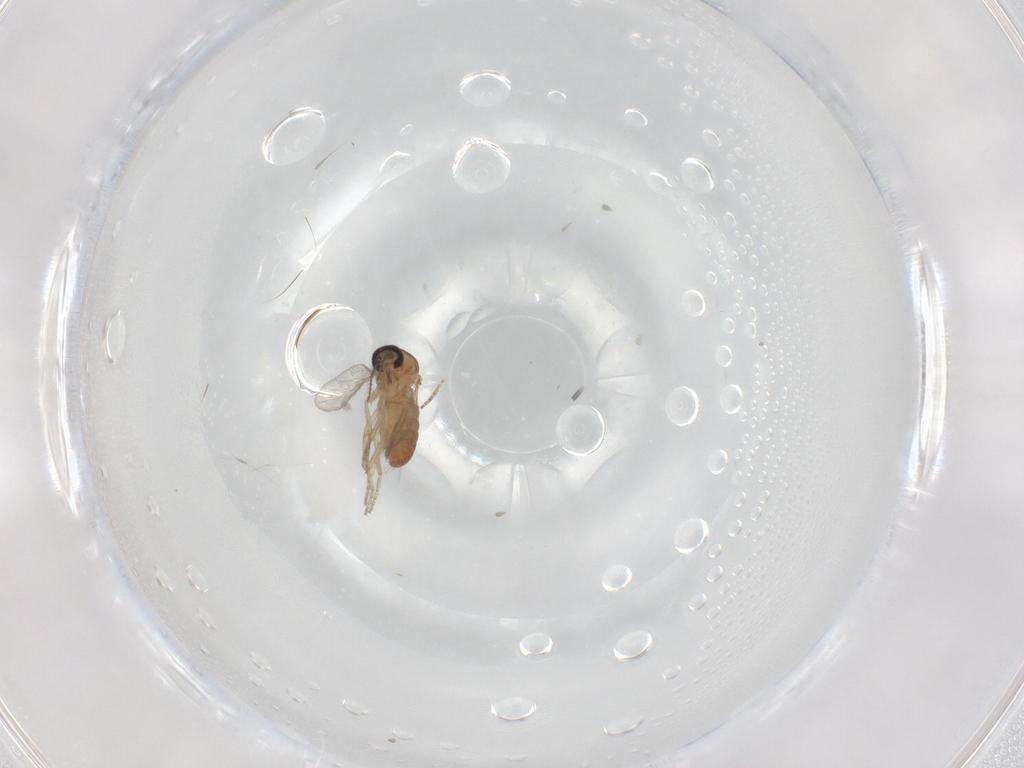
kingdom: Animalia
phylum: Arthropoda
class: Insecta
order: Diptera
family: Ceratopogonidae
